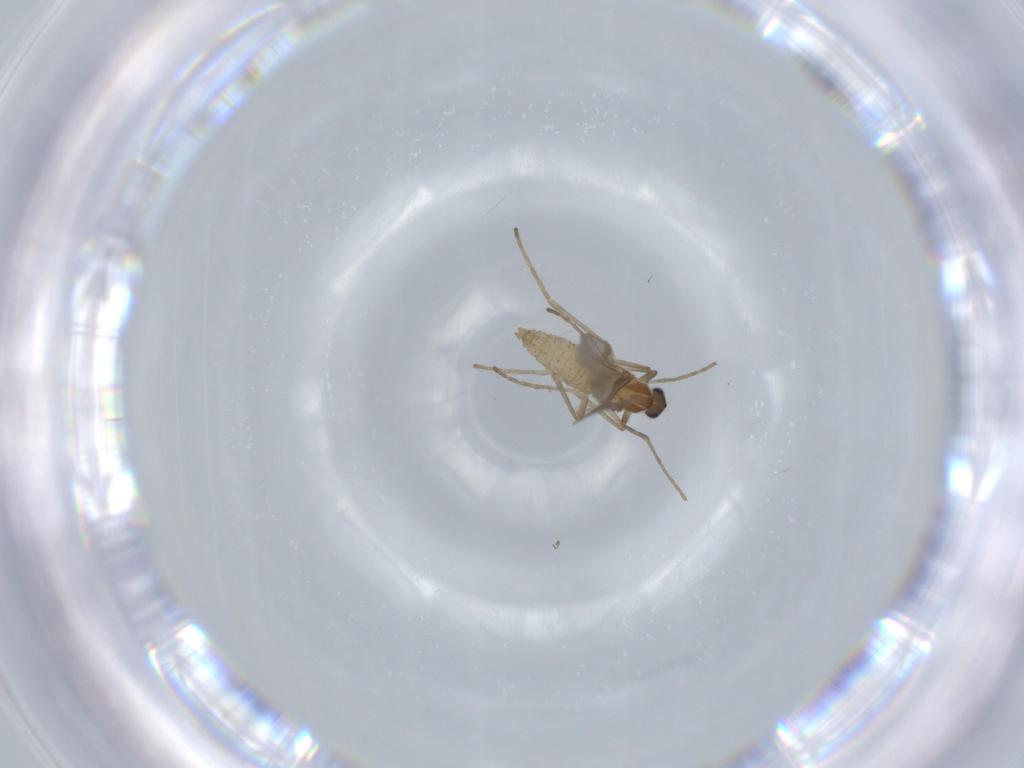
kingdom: Animalia
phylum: Arthropoda
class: Insecta
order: Diptera
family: Cecidomyiidae
